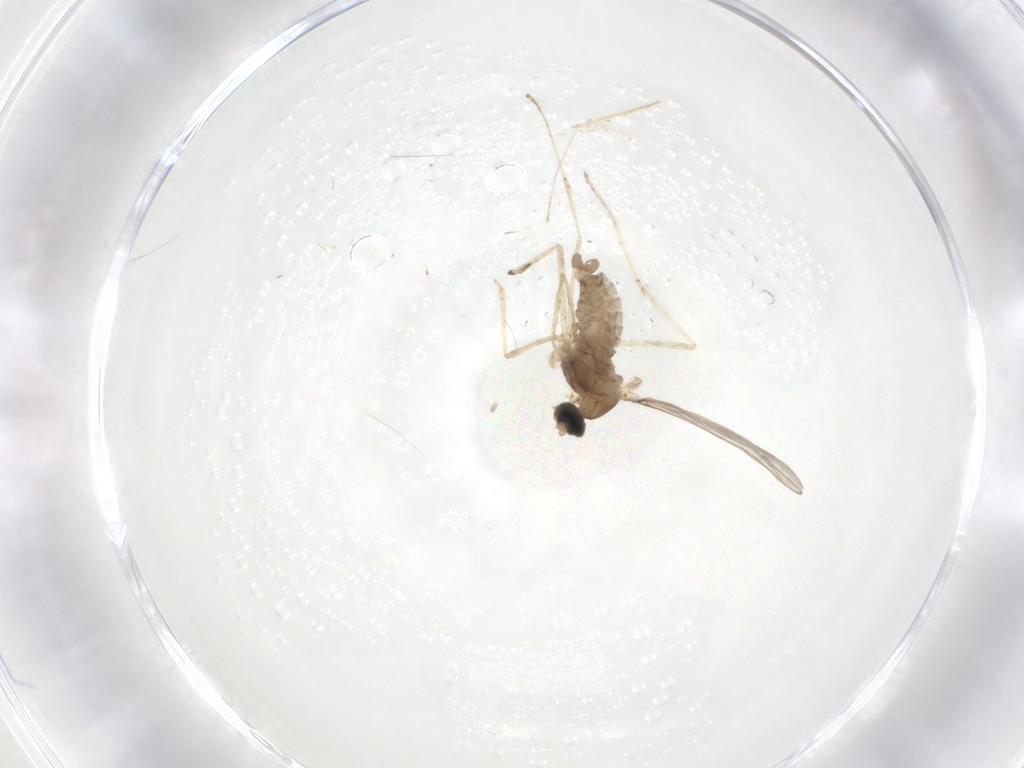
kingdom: Animalia
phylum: Arthropoda
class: Insecta
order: Diptera
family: Cecidomyiidae
